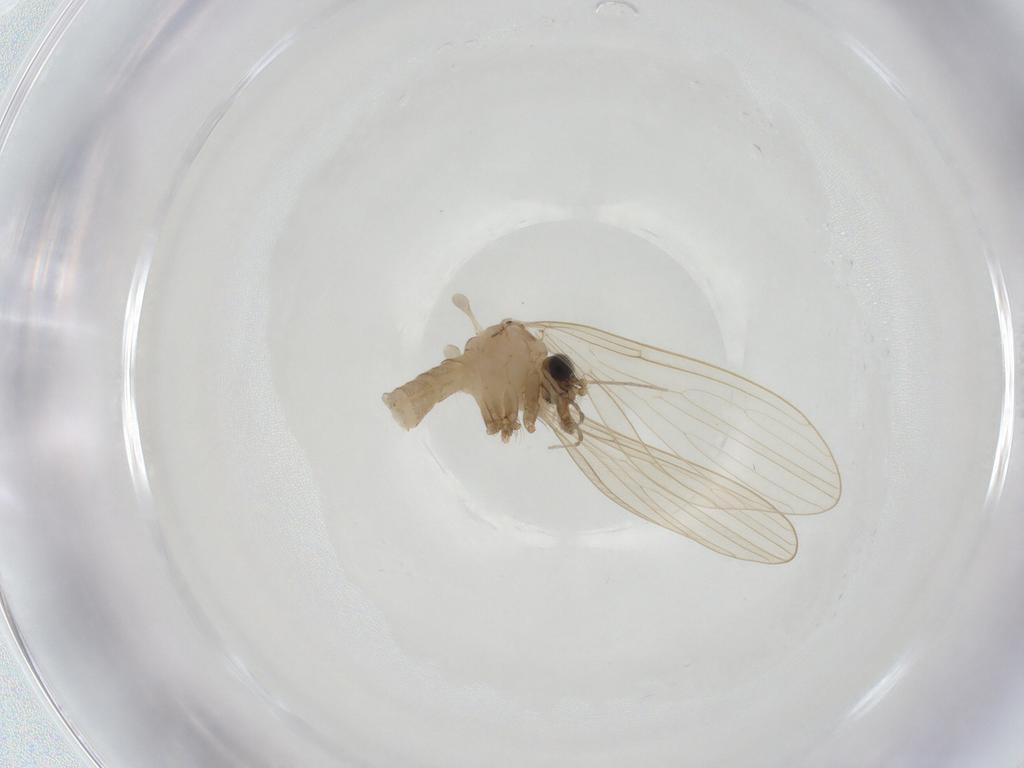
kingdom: Animalia
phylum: Arthropoda
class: Insecta
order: Diptera
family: Psychodidae
